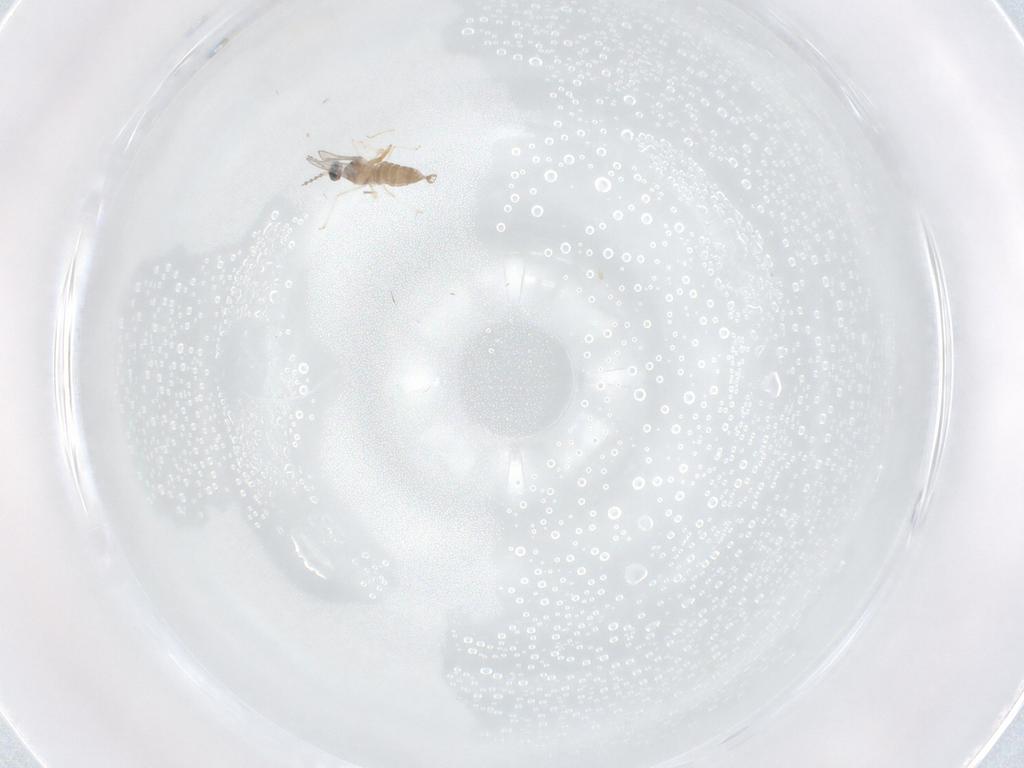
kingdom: Animalia
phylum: Arthropoda
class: Insecta
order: Diptera
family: Cecidomyiidae
